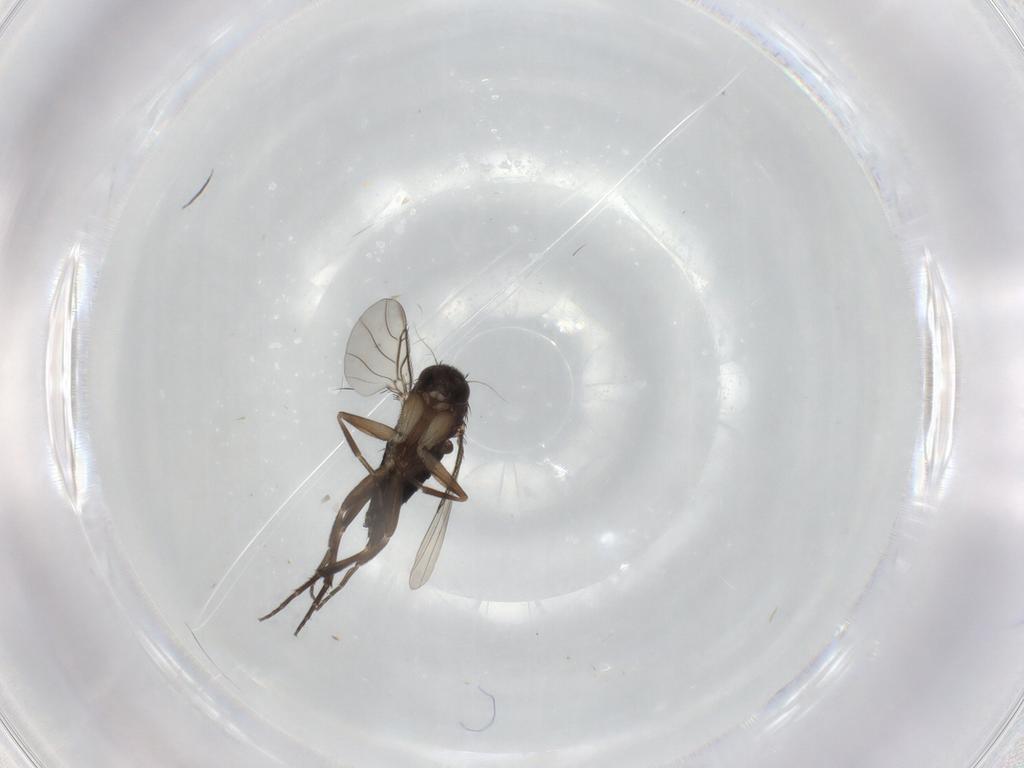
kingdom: Animalia
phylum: Arthropoda
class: Insecta
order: Diptera
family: Phoridae
